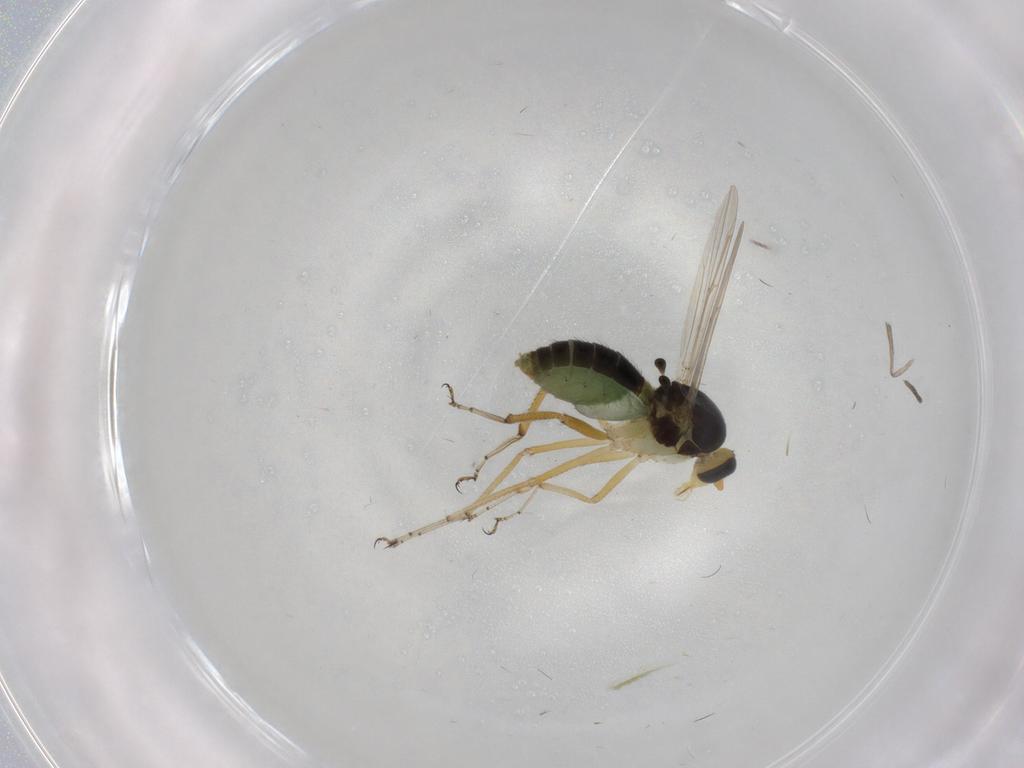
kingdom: Animalia
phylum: Arthropoda
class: Insecta
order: Diptera
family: Ceratopogonidae
